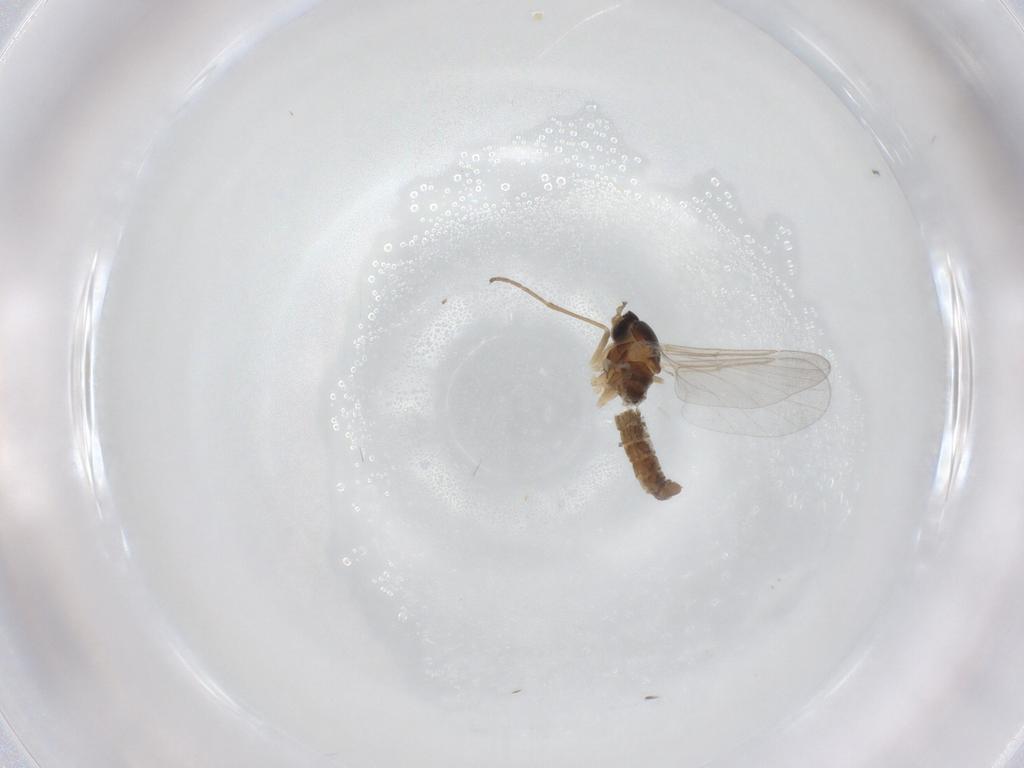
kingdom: Animalia
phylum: Arthropoda
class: Insecta
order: Diptera
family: Cecidomyiidae
